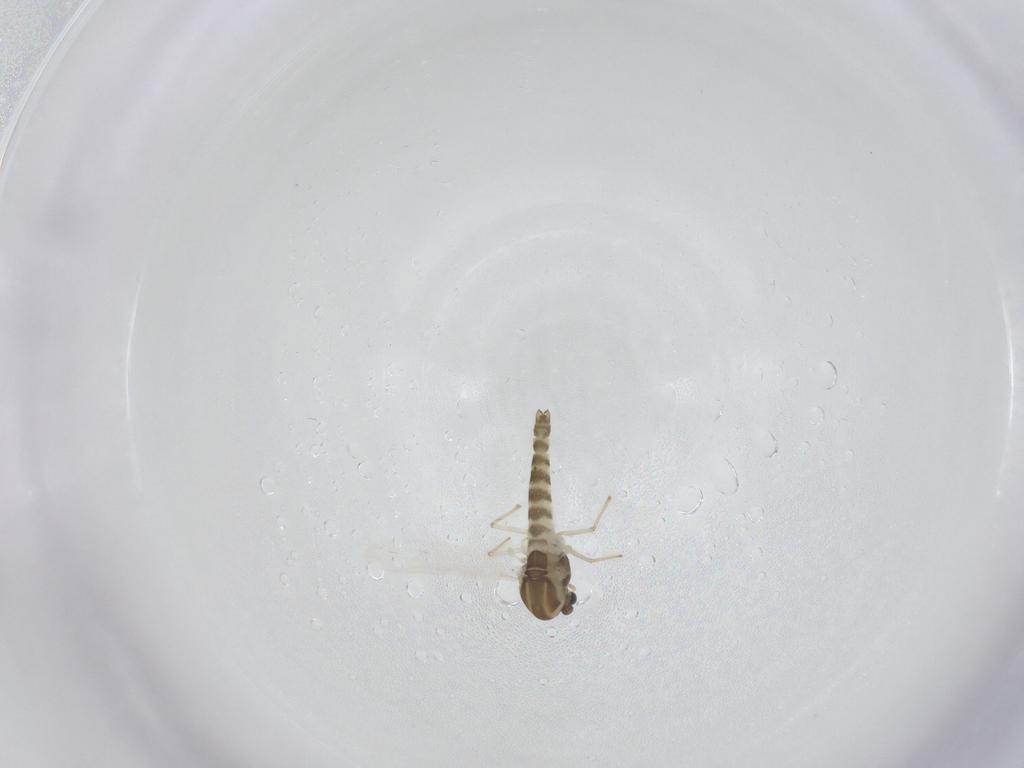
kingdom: Animalia
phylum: Arthropoda
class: Insecta
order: Diptera
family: Chironomidae
